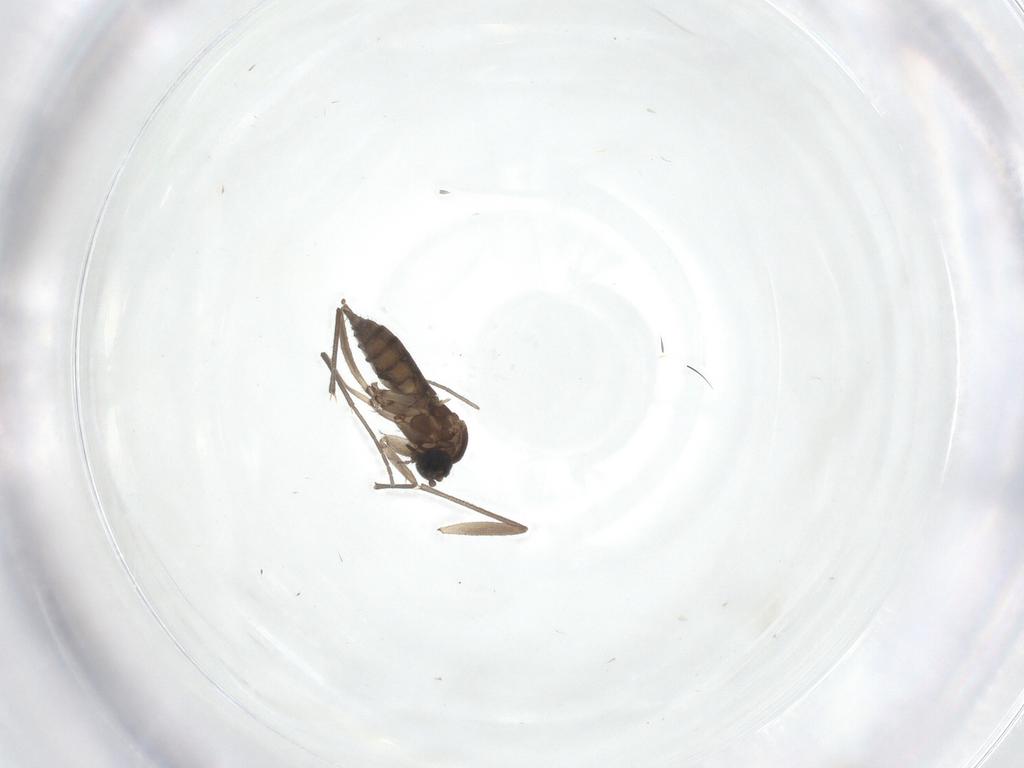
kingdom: Animalia
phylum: Arthropoda
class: Insecta
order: Diptera
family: Sciaridae
